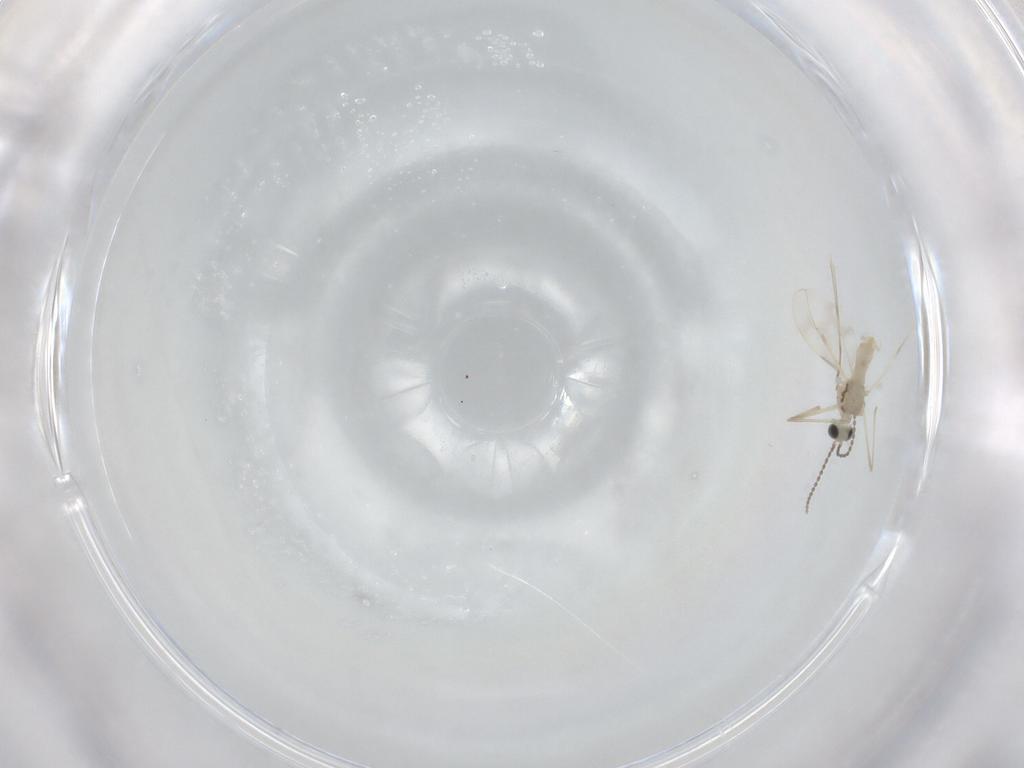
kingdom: Animalia
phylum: Arthropoda
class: Insecta
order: Diptera
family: Cecidomyiidae
